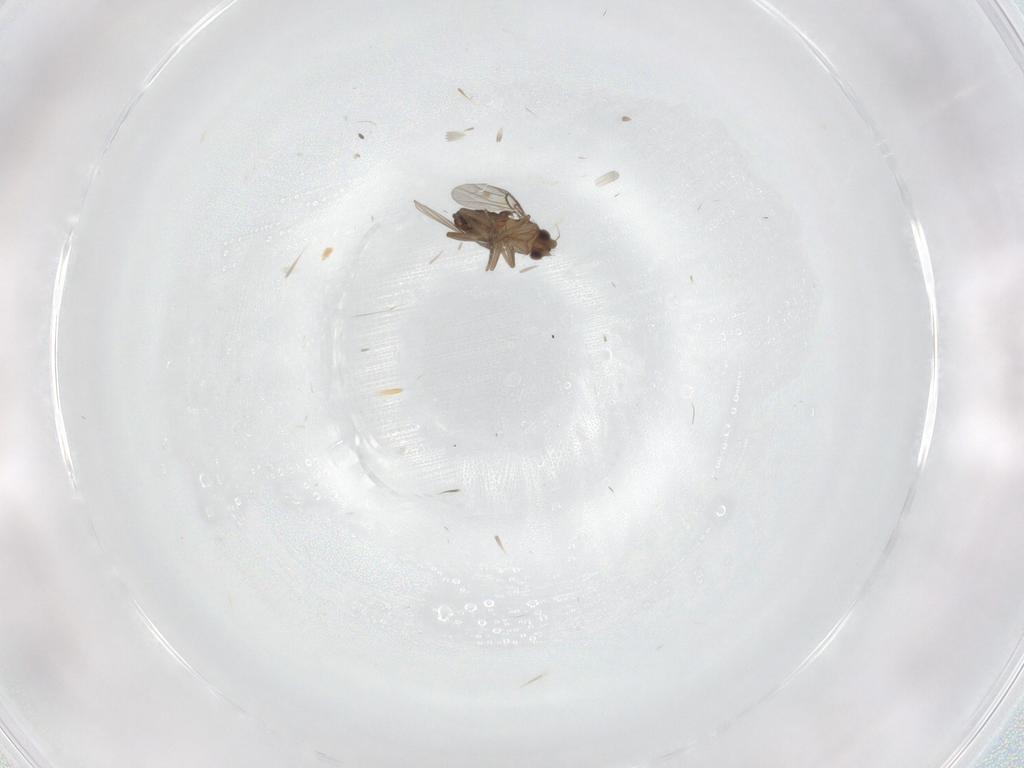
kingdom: Animalia
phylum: Arthropoda
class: Insecta
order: Diptera
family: Phoridae
